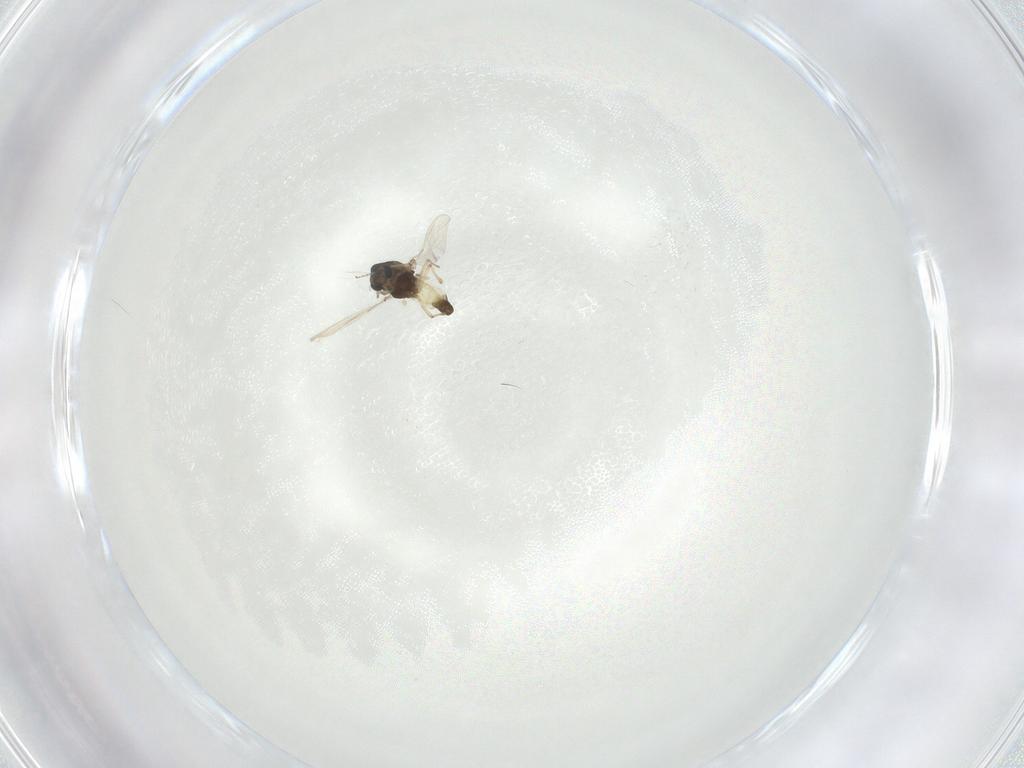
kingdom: Animalia
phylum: Arthropoda
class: Insecta
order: Diptera
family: Chironomidae
